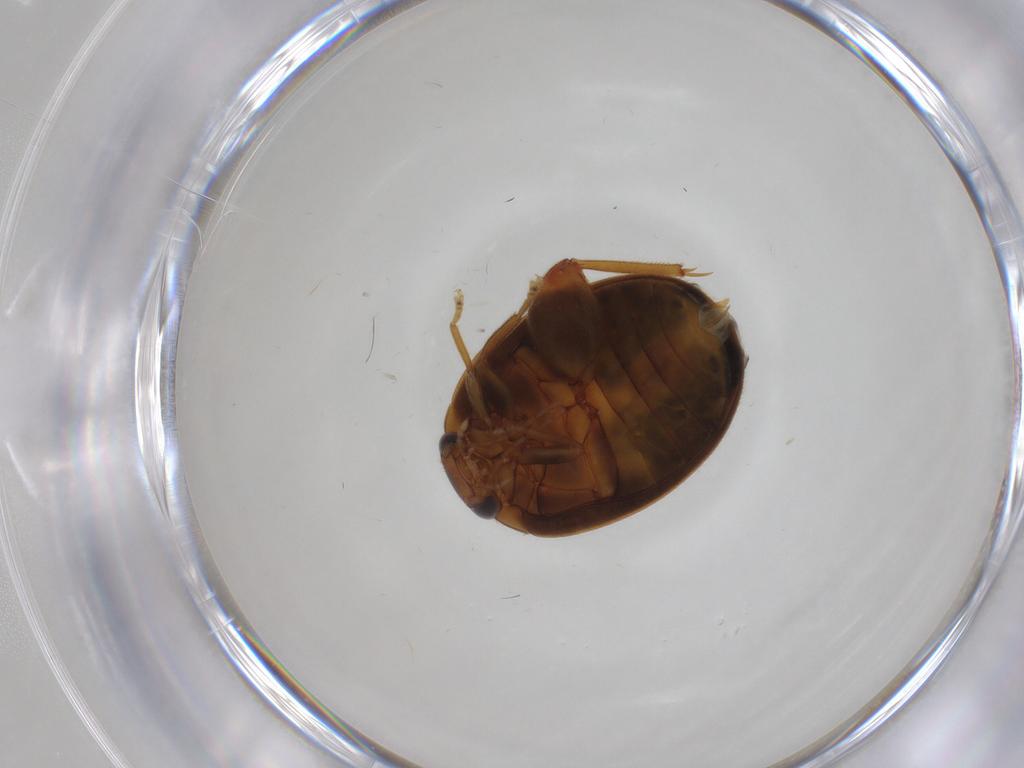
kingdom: Animalia
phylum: Arthropoda
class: Insecta
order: Coleoptera
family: Scirtidae
